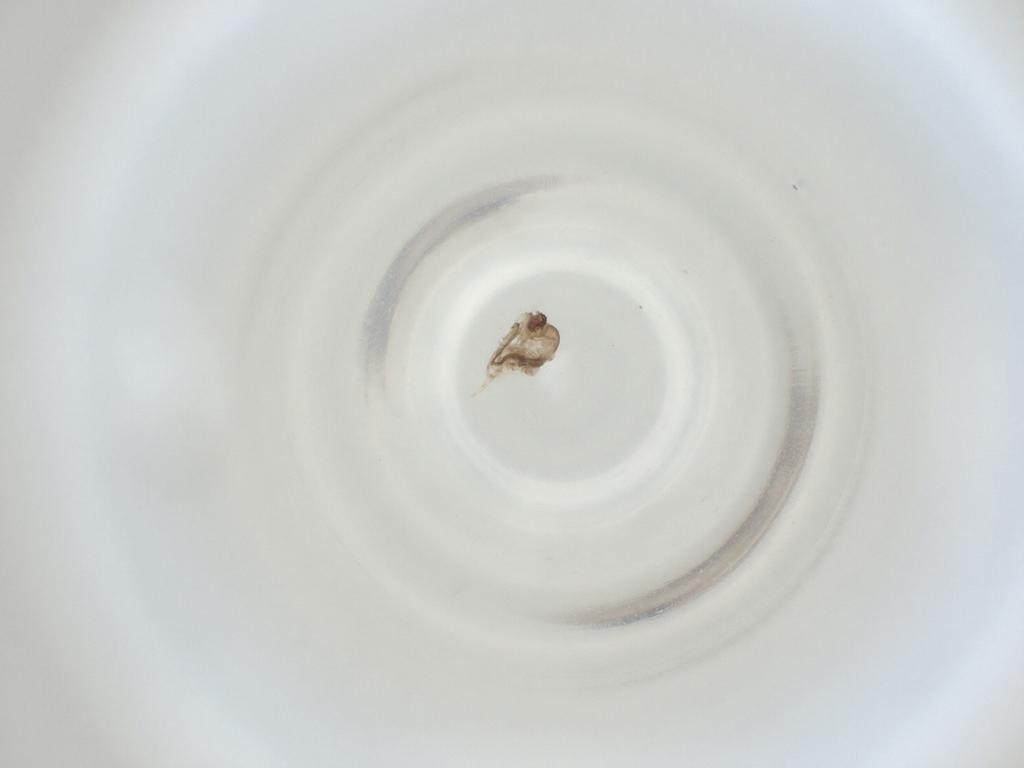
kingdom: Animalia
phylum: Arthropoda
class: Insecta
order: Diptera
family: Cecidomyiidae
